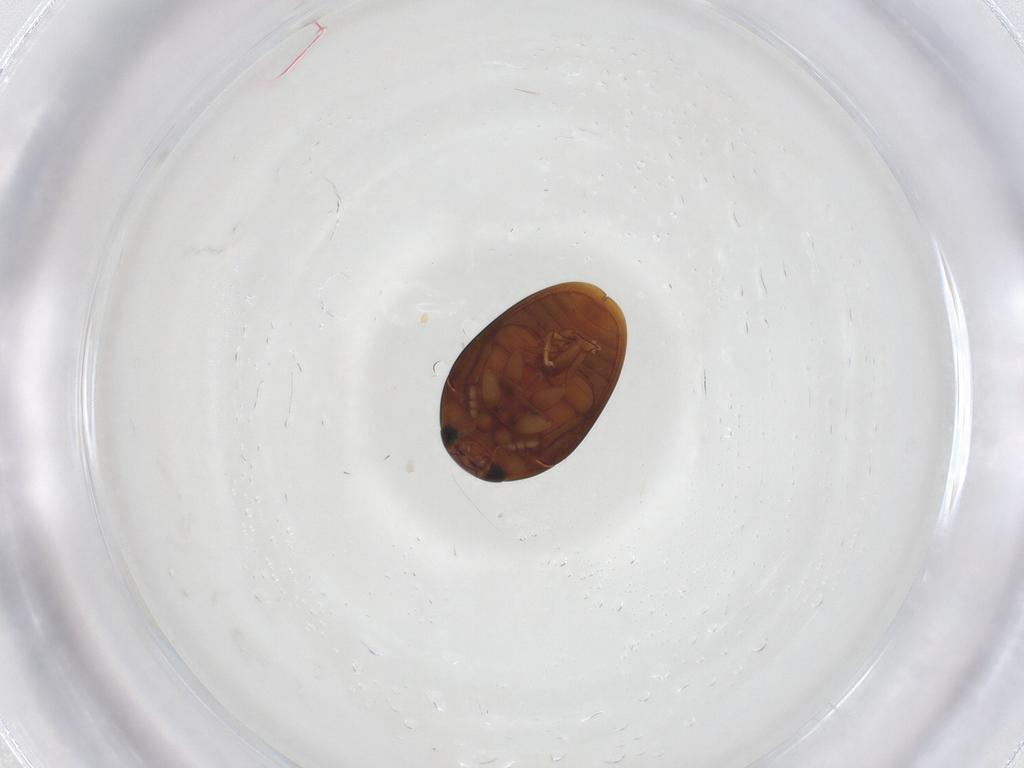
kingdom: Animalia
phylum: Arthropoda
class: Insecta
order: Coleoptera
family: Phalacridae
